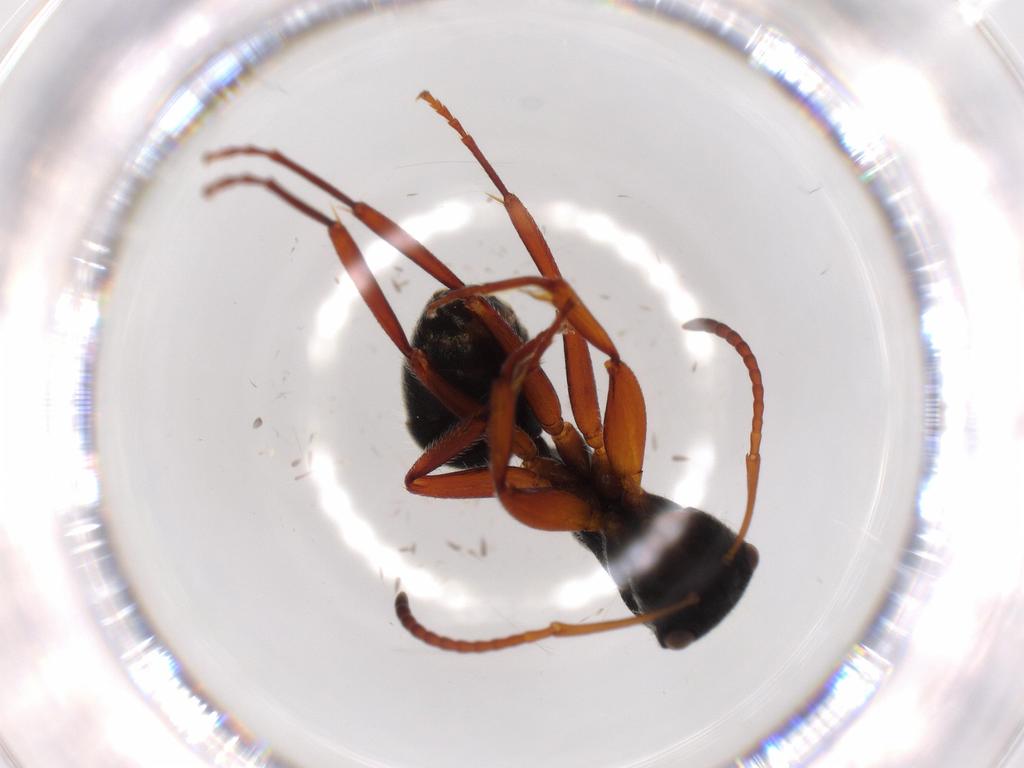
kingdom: Animalia
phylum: Arthropoda
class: Insecta
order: Hymenoptera
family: Formicidae
